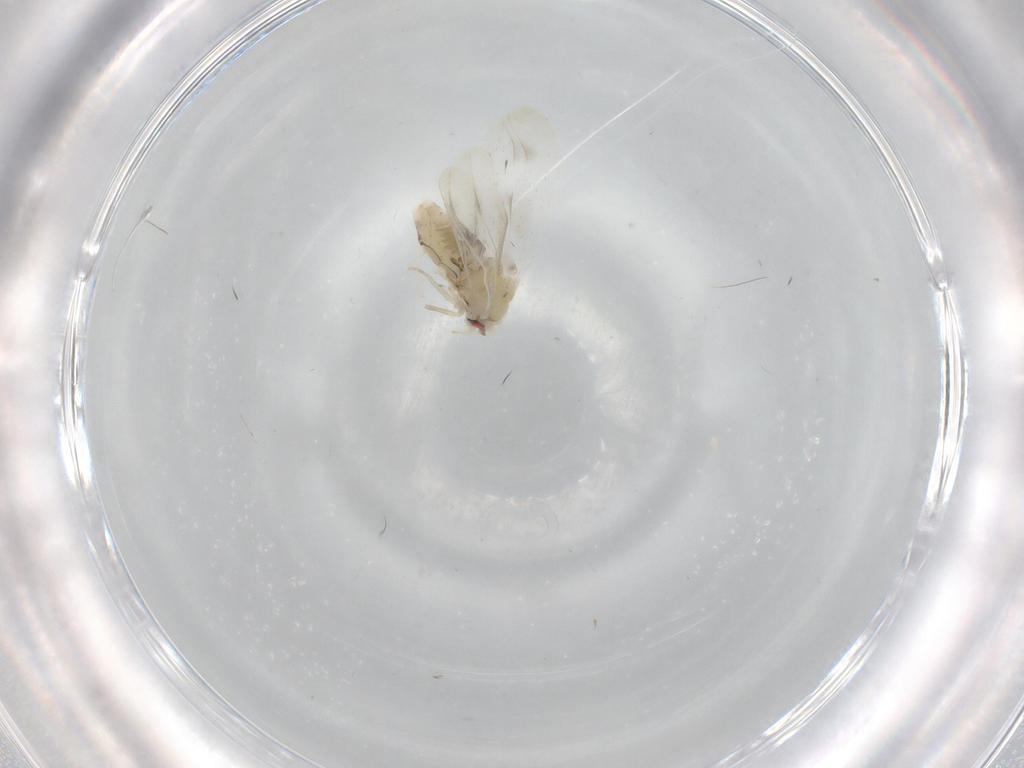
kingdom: Animalia
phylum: Arthropoda
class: Insecta
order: Hemiptera
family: Aleyrodidae
